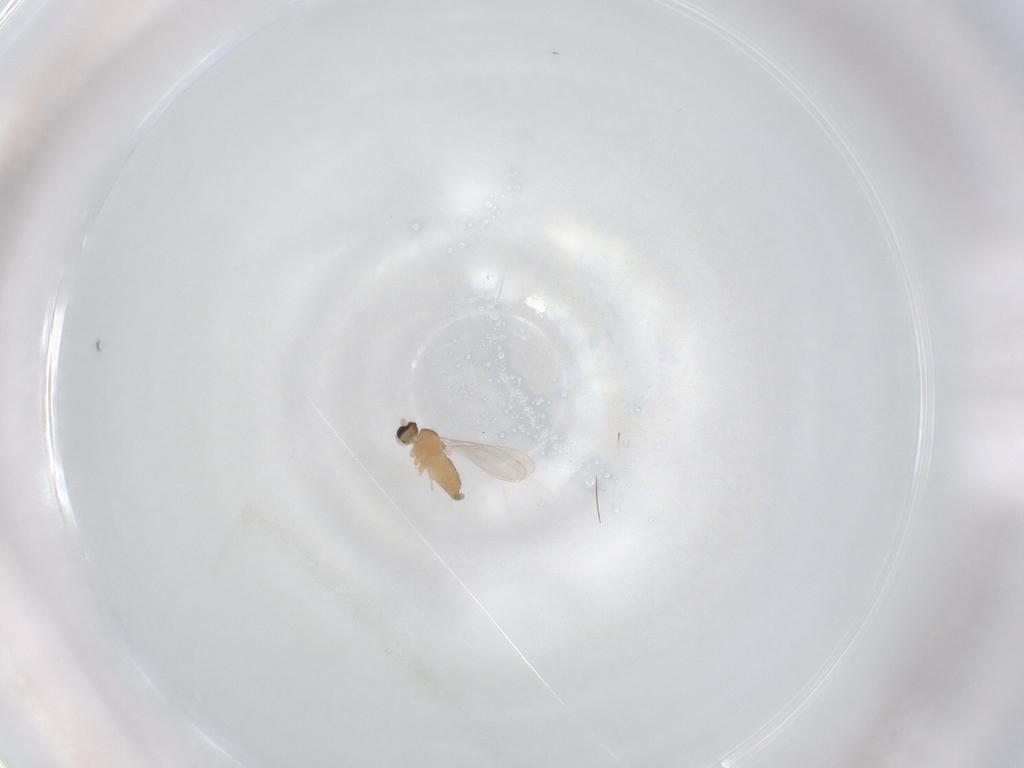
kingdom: Animalia
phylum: Arthropoda
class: Insecta
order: Diptera
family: Cecidomyiidae
